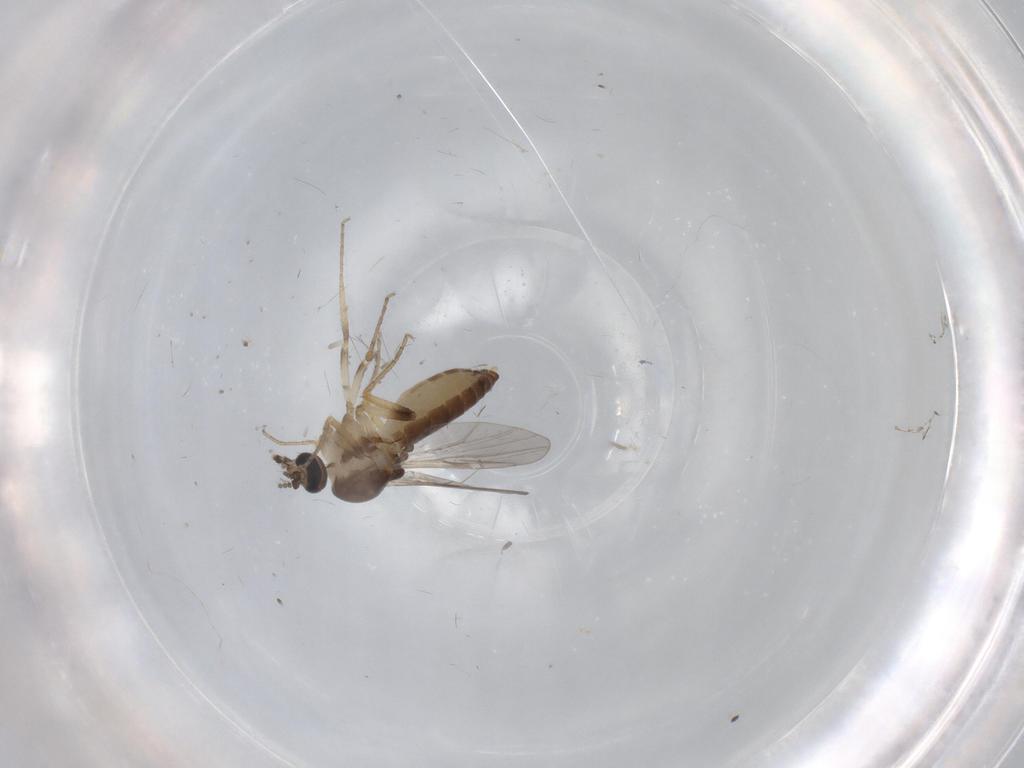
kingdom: Animalia
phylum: Arthropoda
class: Insecta
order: Diptera
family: Ceratopogonidae
